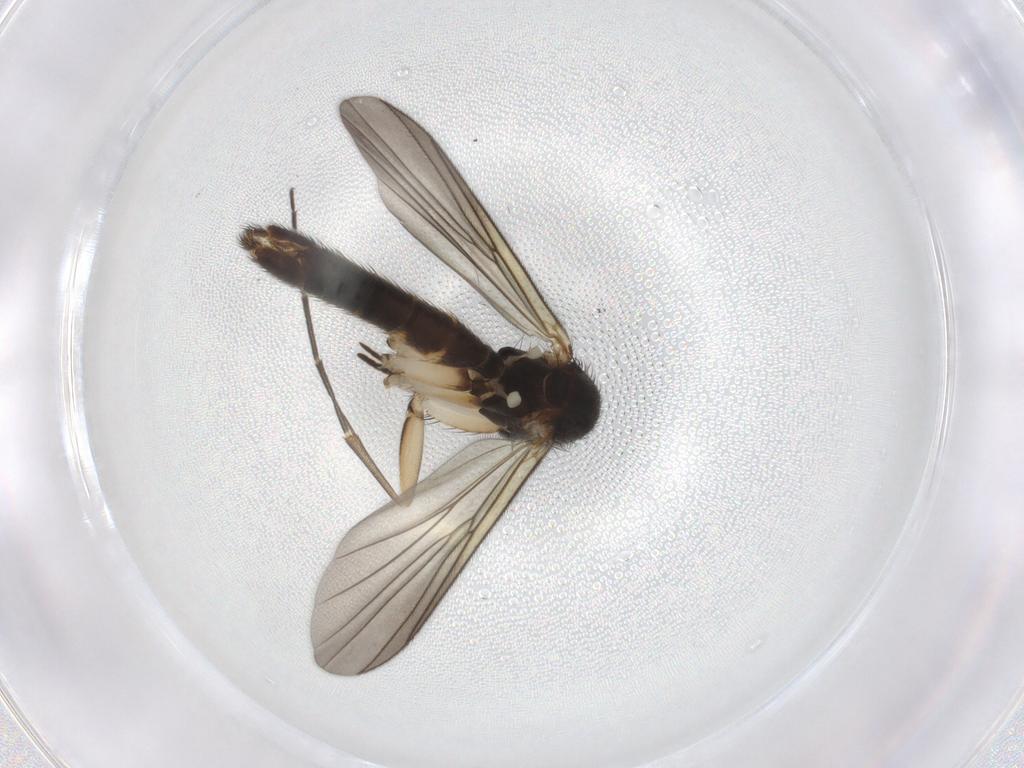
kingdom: Animalia
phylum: Arthropoda
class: Insecta
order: Diptera
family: Mycetophilidae
